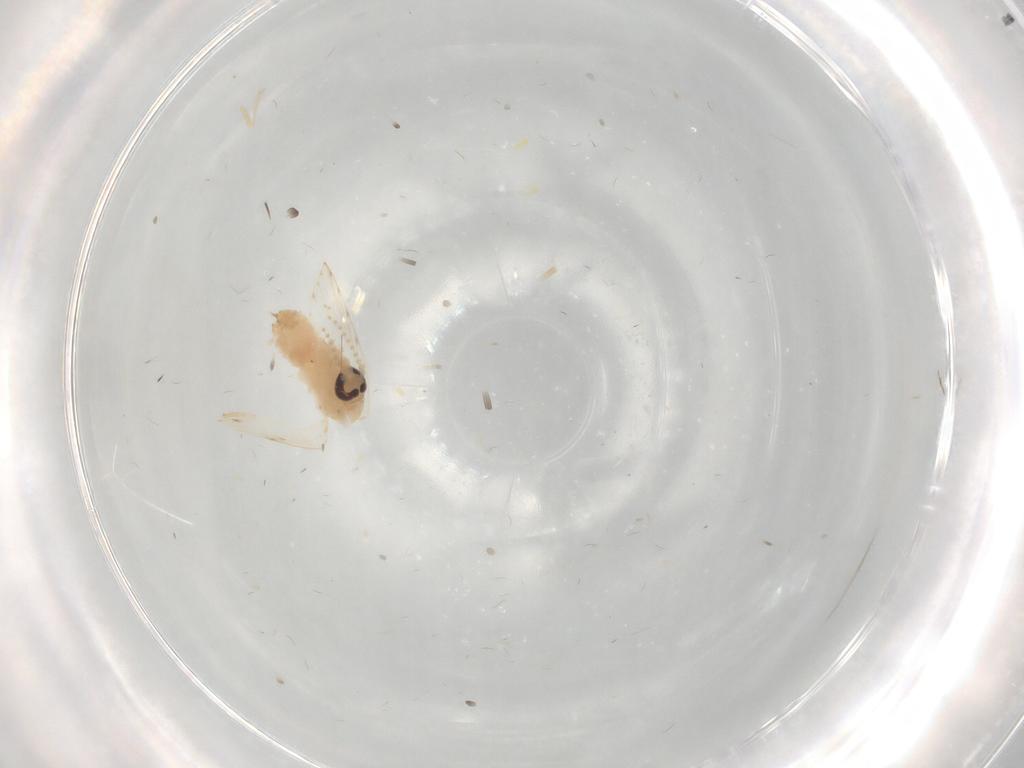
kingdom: Animalia
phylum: Arthropoda
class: Insecta
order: Diptera
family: Psychodidae
